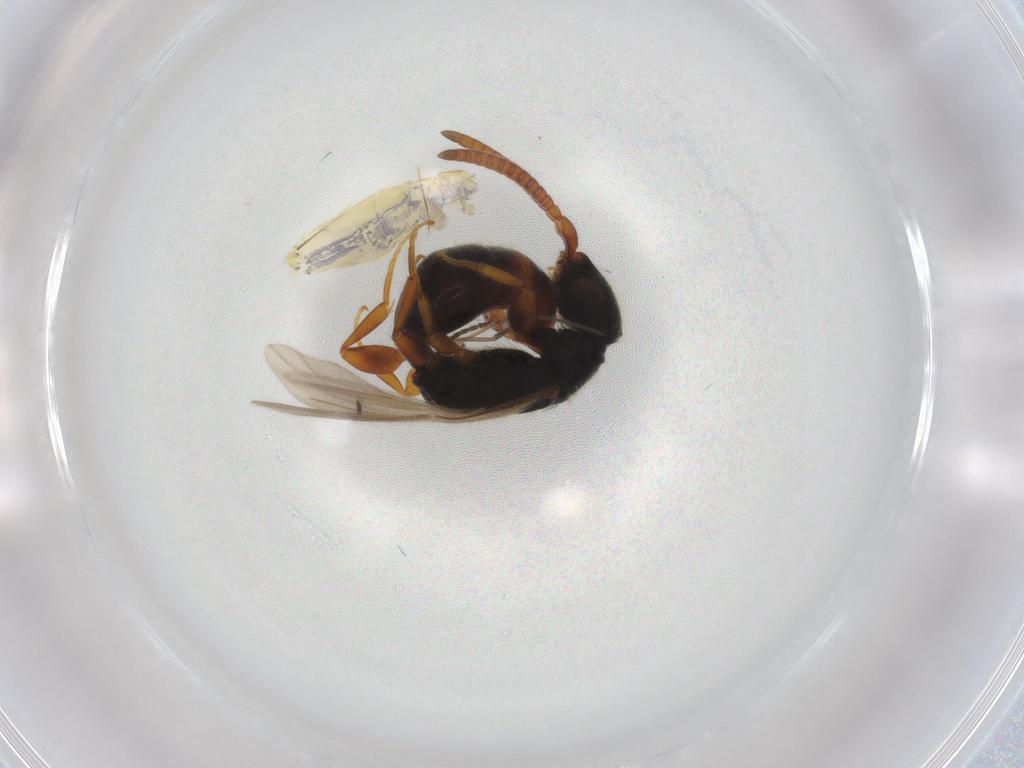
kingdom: Animalia
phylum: Arthropoda
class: Insecta
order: Hymenoptera
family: Bethylidae
